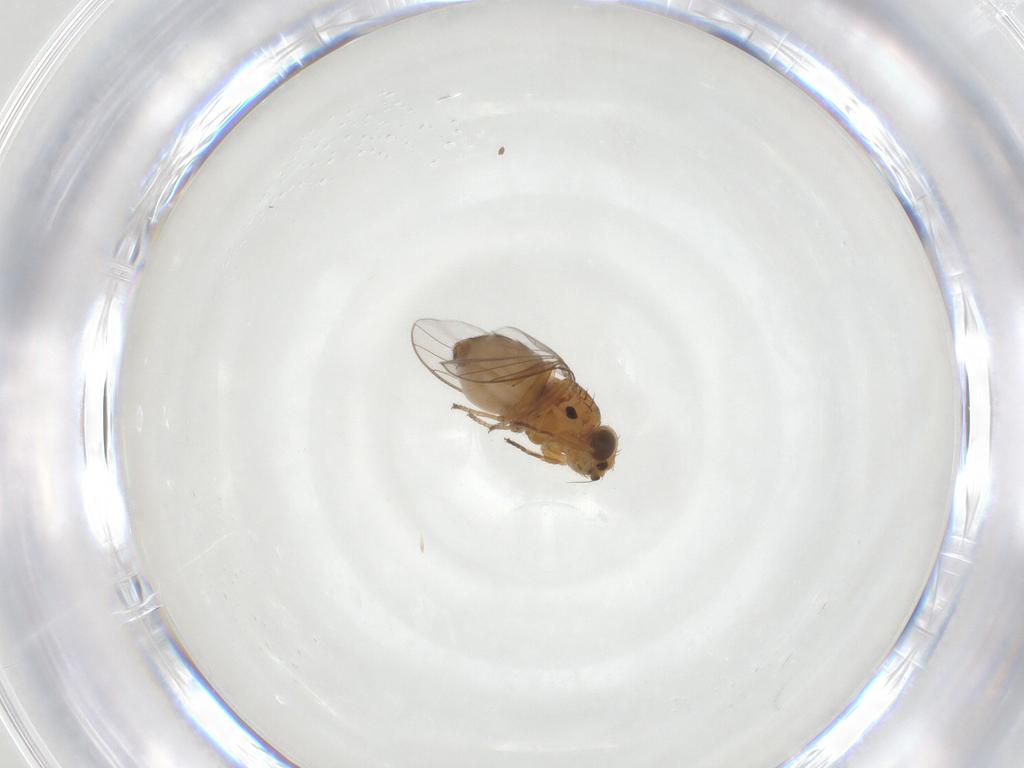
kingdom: Animalia
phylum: Arthropoda
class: Insecta
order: Diptera
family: Chloropidae
